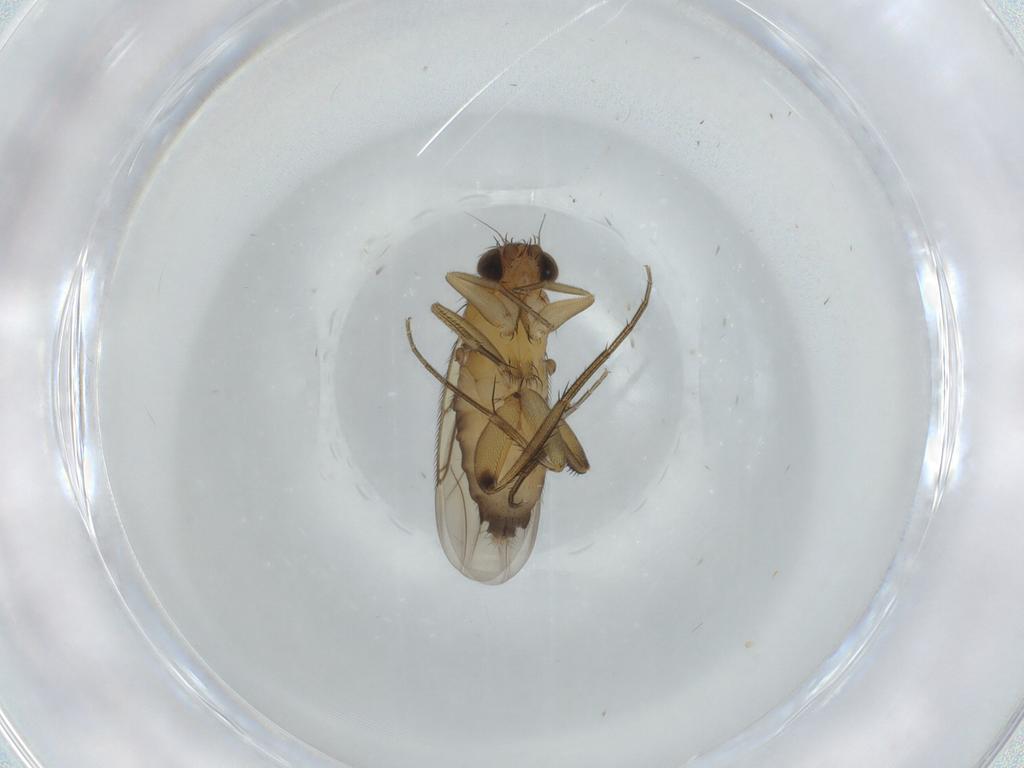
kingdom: Animalia
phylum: Arthropoda
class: Insecta
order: Diptera
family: Phoridae
